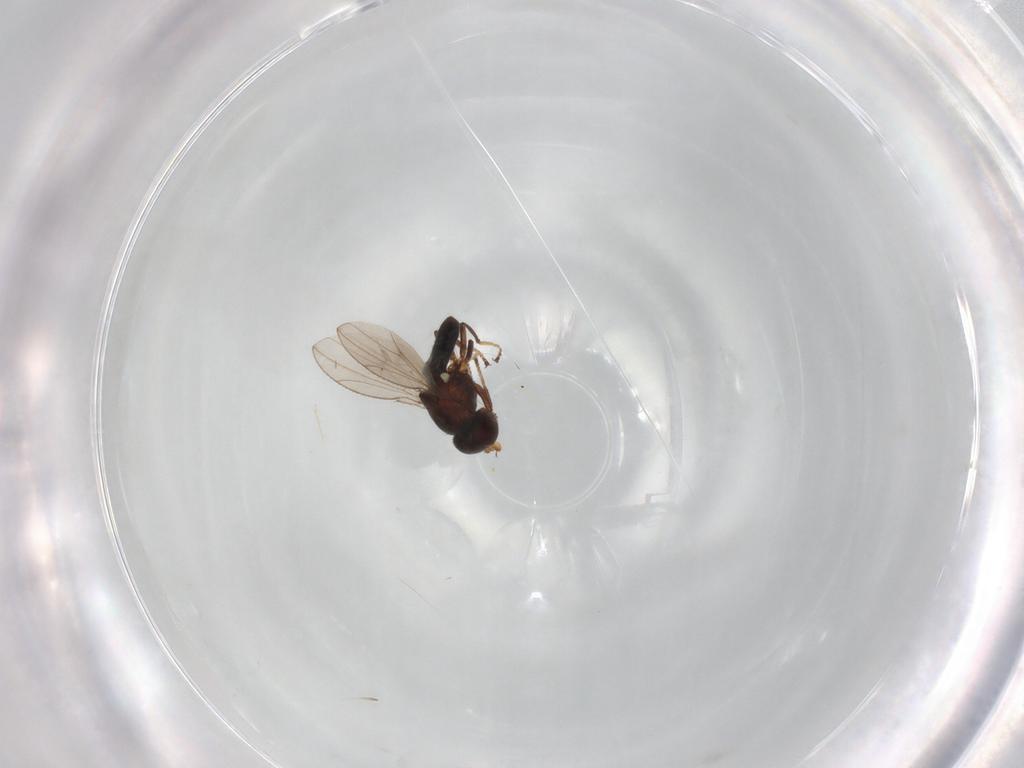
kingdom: Animalia
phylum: Arthropoda
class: Insecta
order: Diptera
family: Ephydridae
